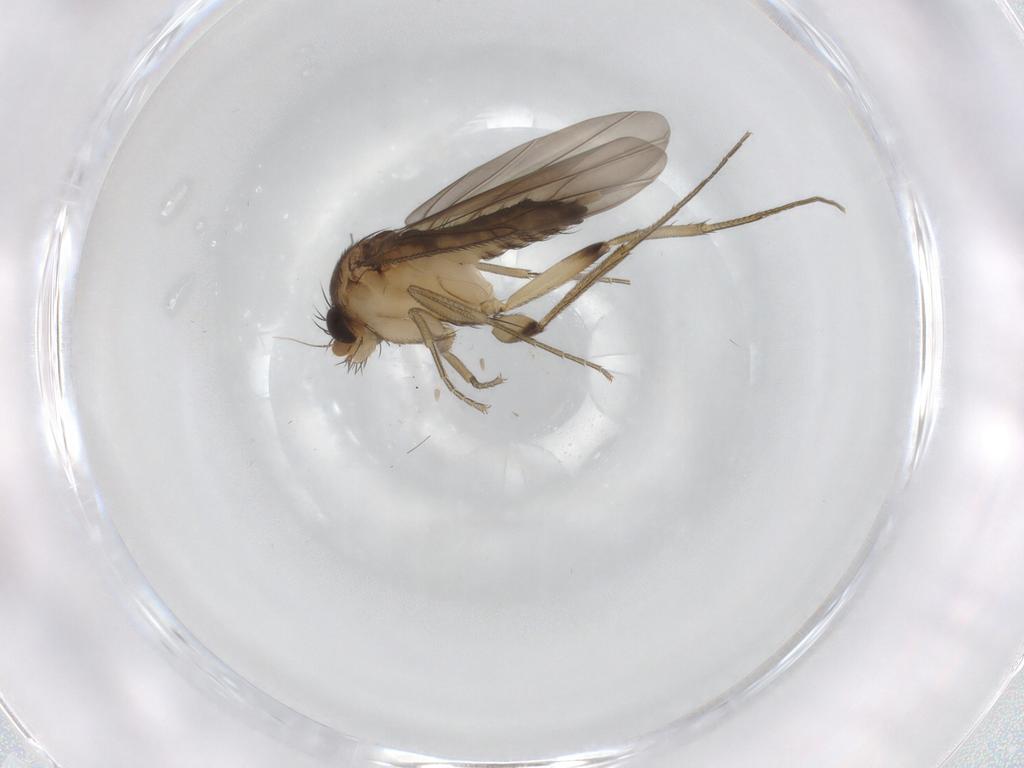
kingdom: Animalia
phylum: Arthropoda
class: Insecta
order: Diptera
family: Phoridae
